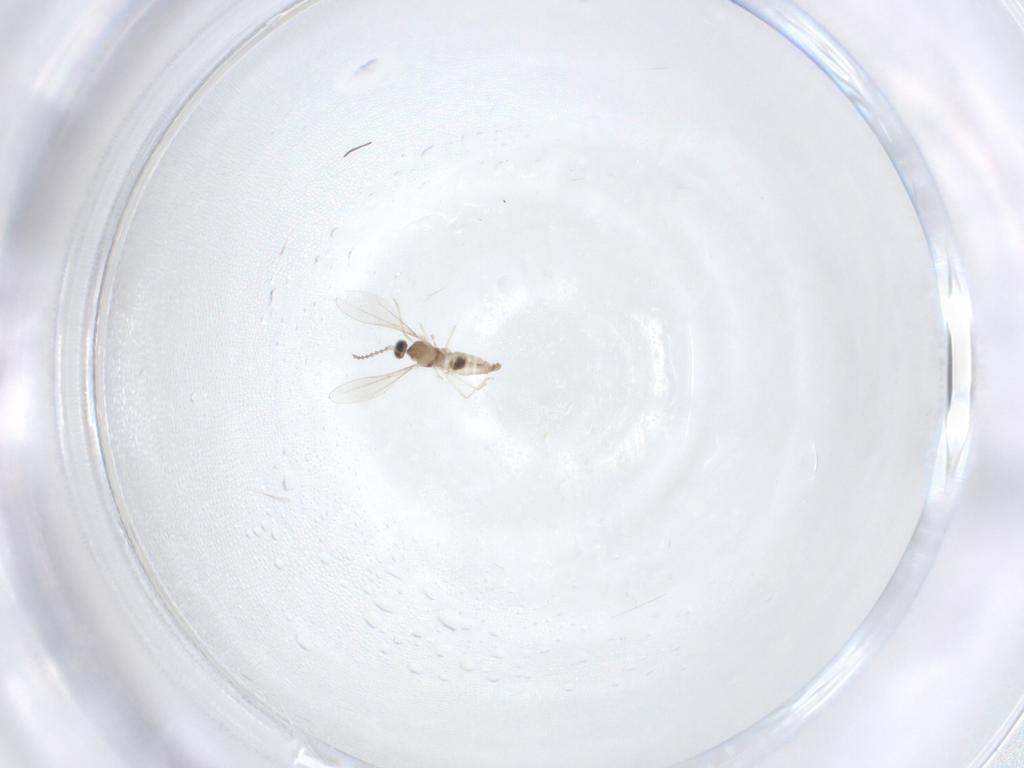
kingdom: Animalia
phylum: Arthropoda
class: Insecta
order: Diptera
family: Cecidomyiidae
